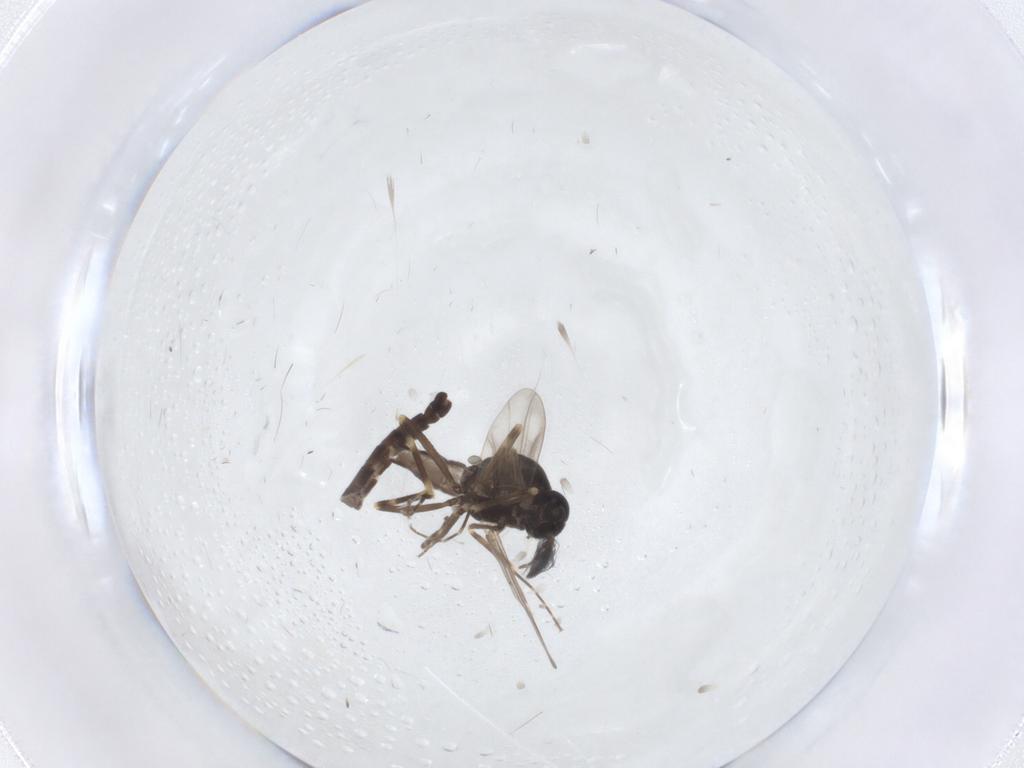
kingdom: Animalia
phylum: Arthropoda
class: Insecta
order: Diptera
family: Ceratopogonidae
